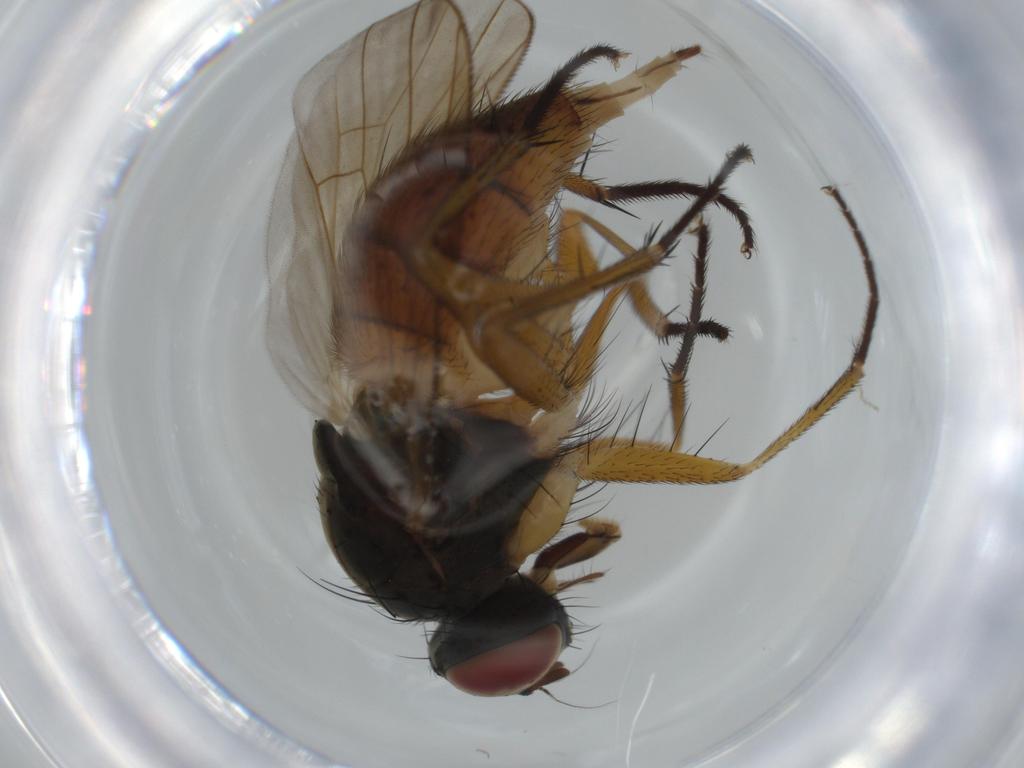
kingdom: Animalia
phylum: Arthropoda
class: Insecta
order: Diptera
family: Muscidae
